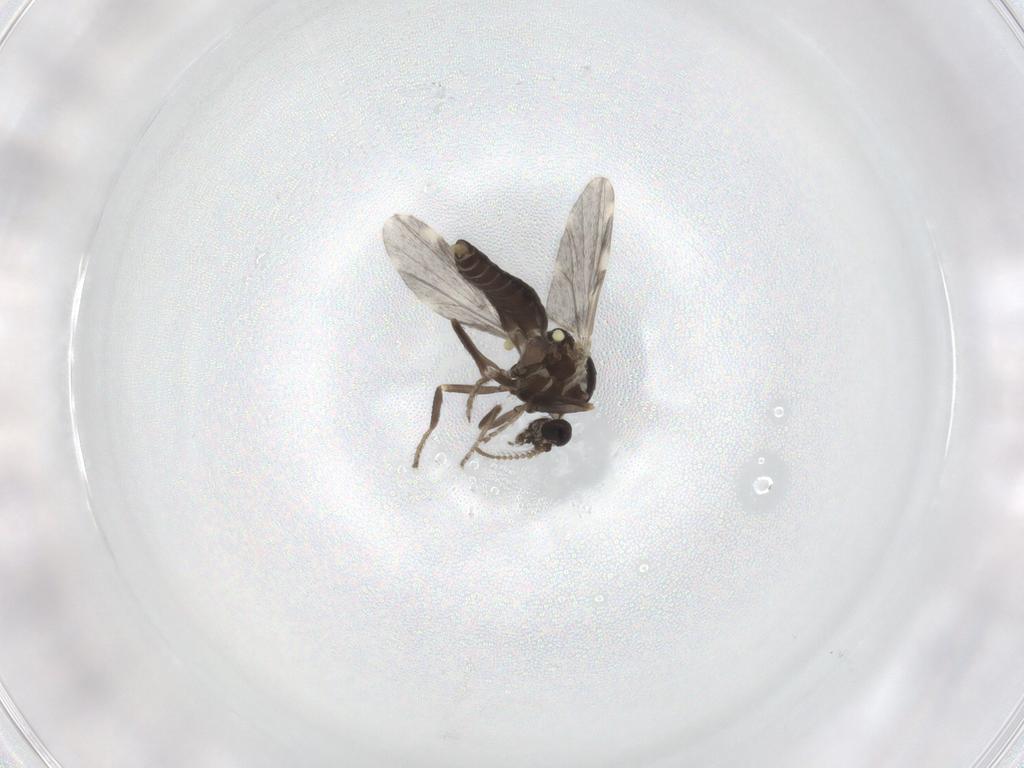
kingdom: Animalia
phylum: Arthropoda
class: Insecta
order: Diptera
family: Ceratopogonidae
